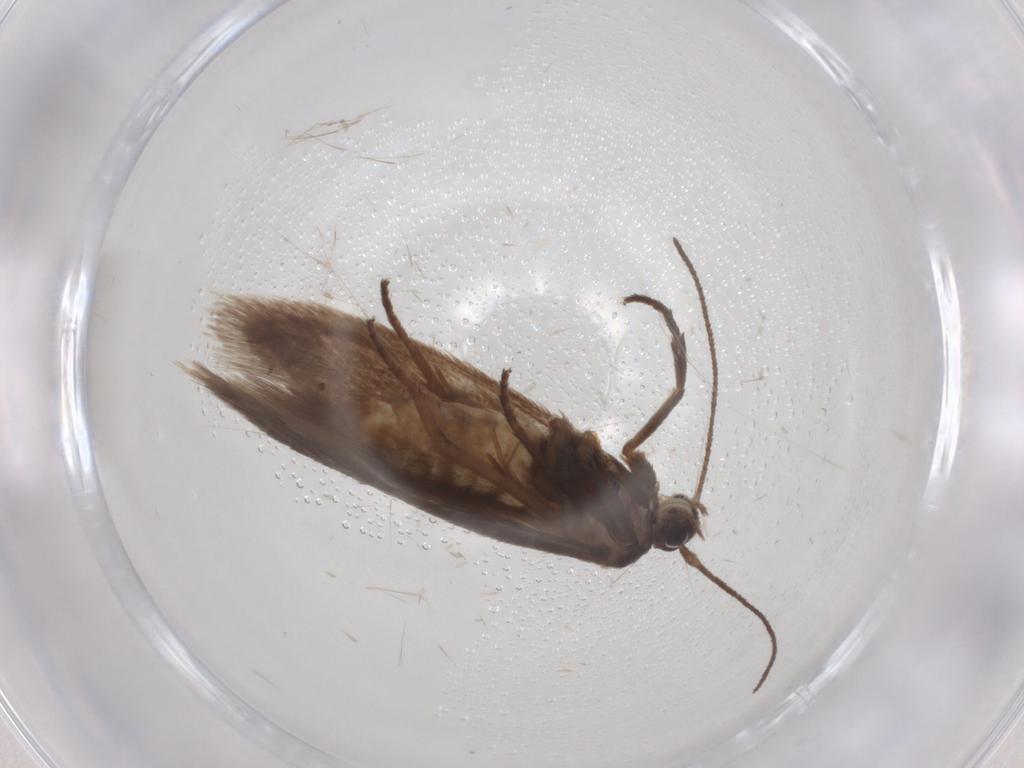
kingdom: Animalia
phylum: Arthropoda
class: Insecta
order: Lepidoptera
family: Limacodidae
